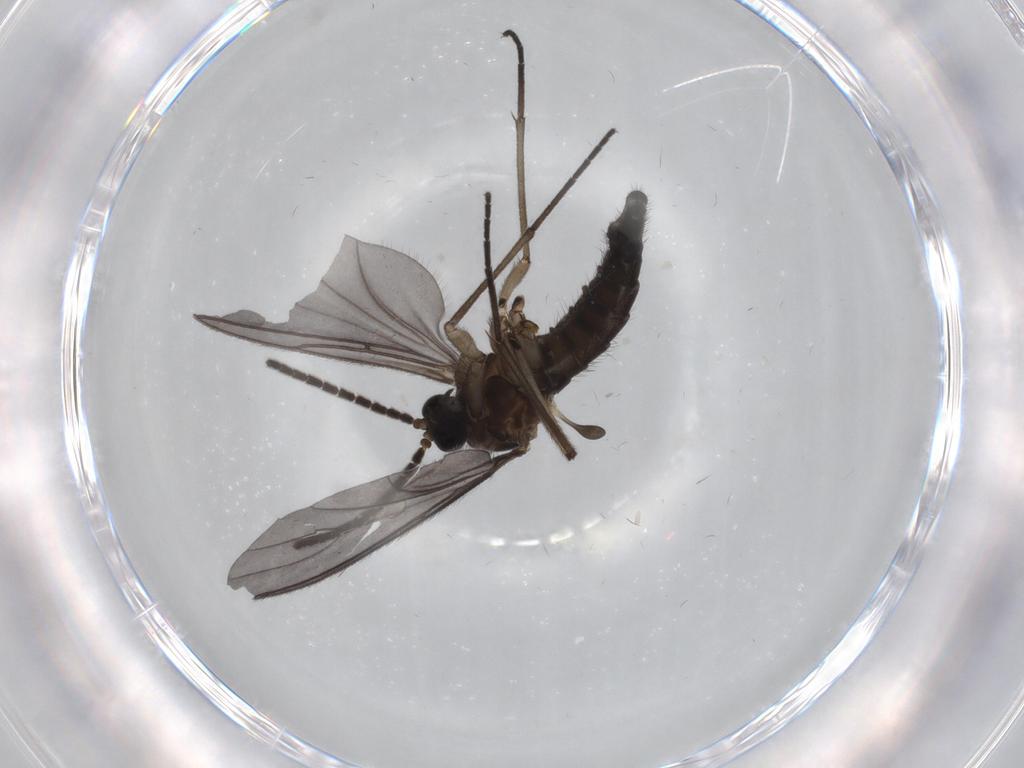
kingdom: Animalia
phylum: Arthropoda
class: Insecta
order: Diptera
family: Sciaridae
